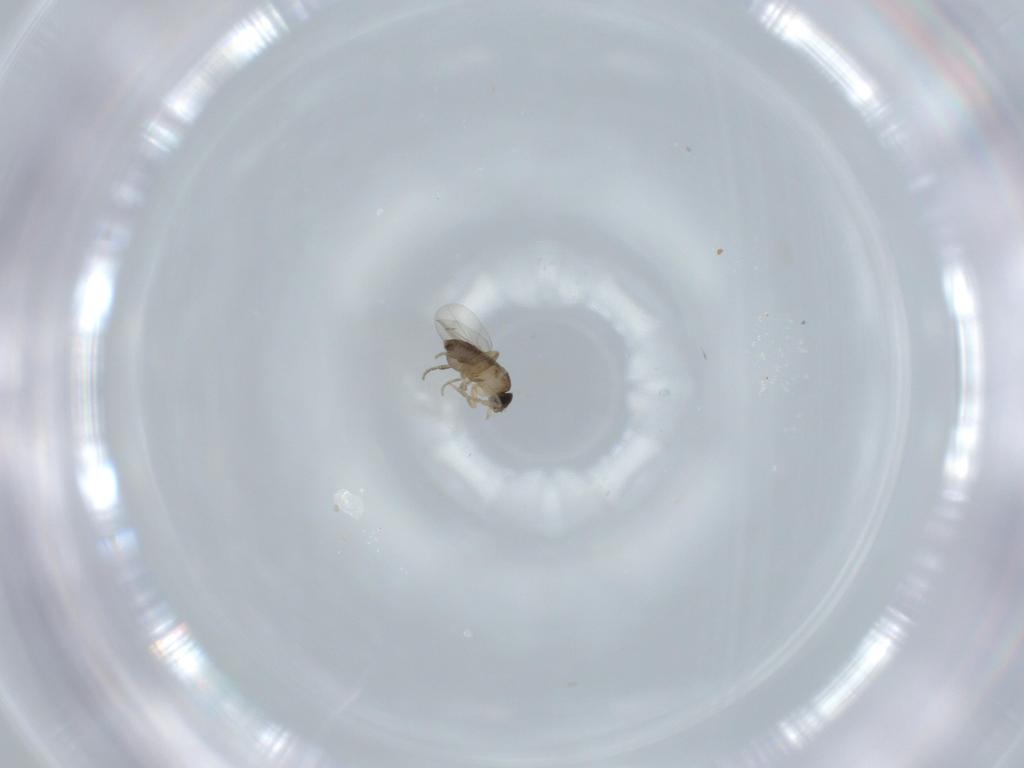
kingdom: Animalia
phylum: Arthropoda
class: Insecta
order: Diptera
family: Phoridae
